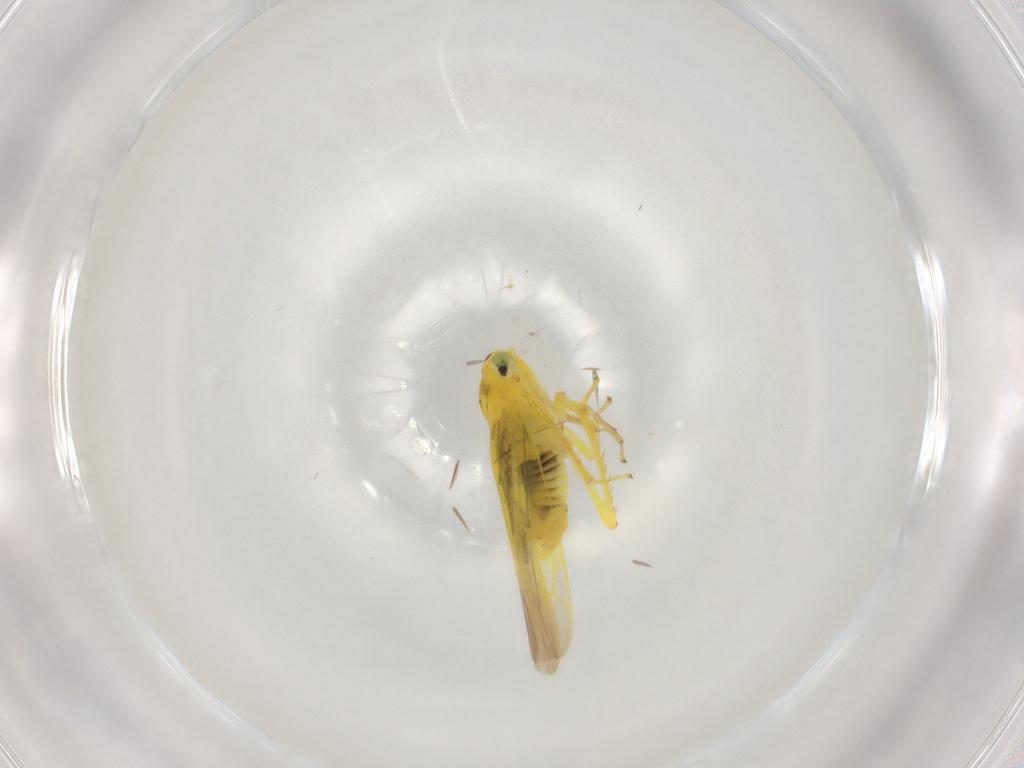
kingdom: Animalia
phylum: Arthropoda
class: Insecta
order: Hemiptera
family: Cicadellidae
